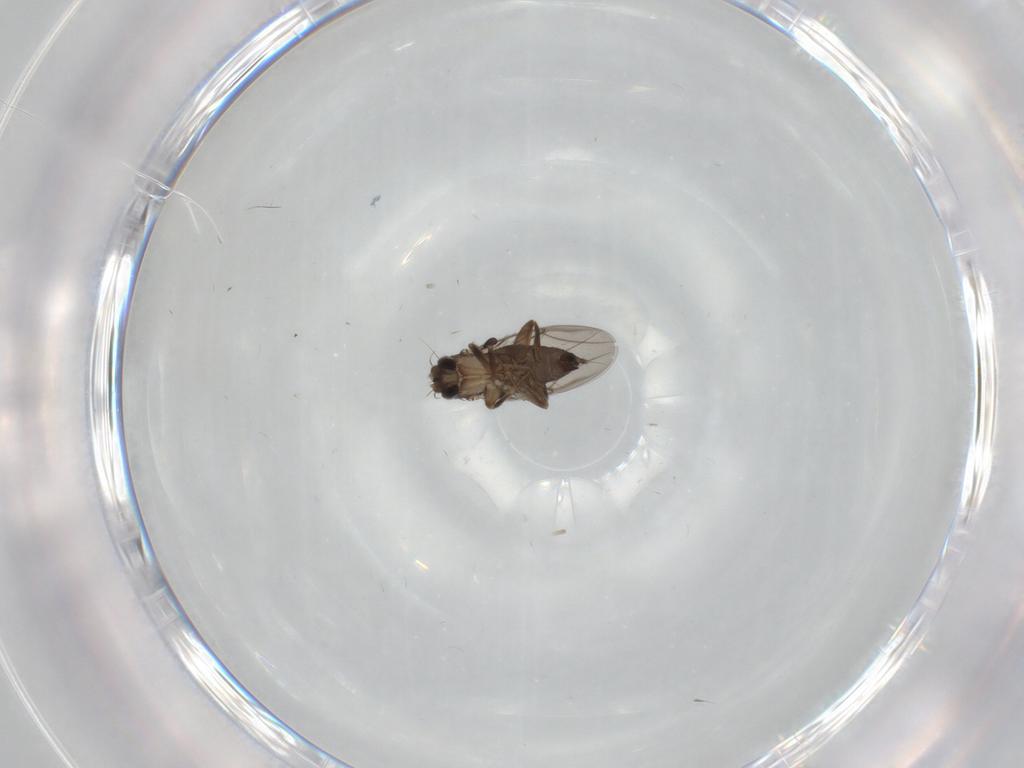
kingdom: Animalia
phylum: Arthropoda
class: Insecta
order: Diptera
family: Phoridae
